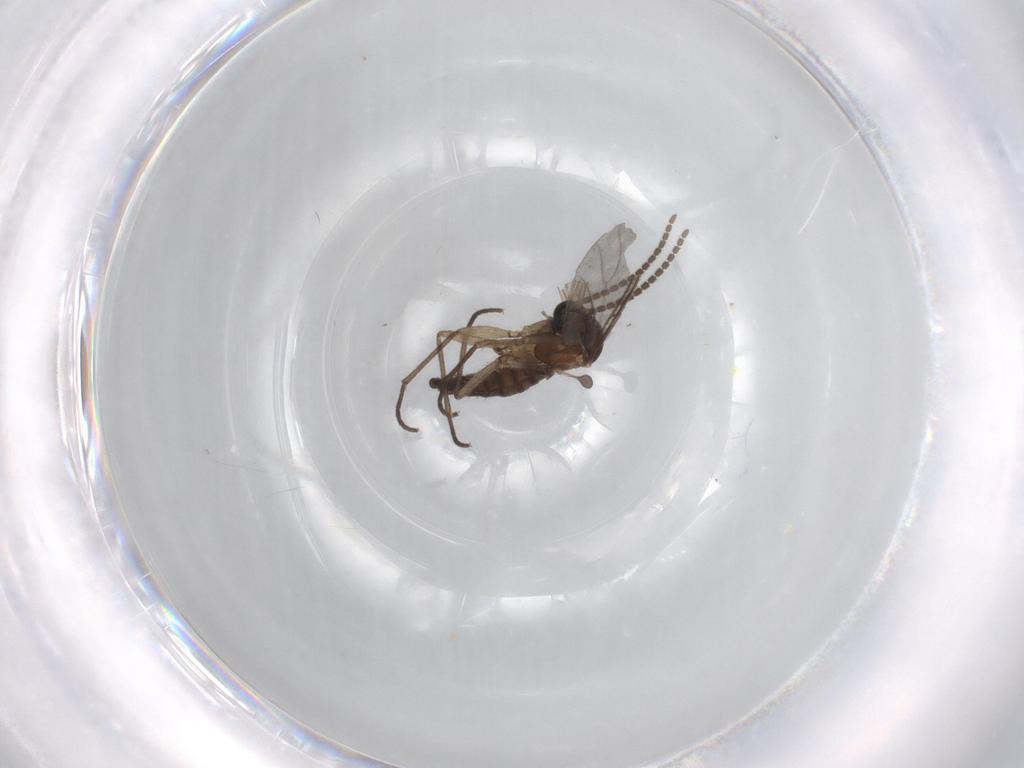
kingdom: Animalia
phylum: Arthropoda
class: Insecta
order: Diptera
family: Sciaridae
